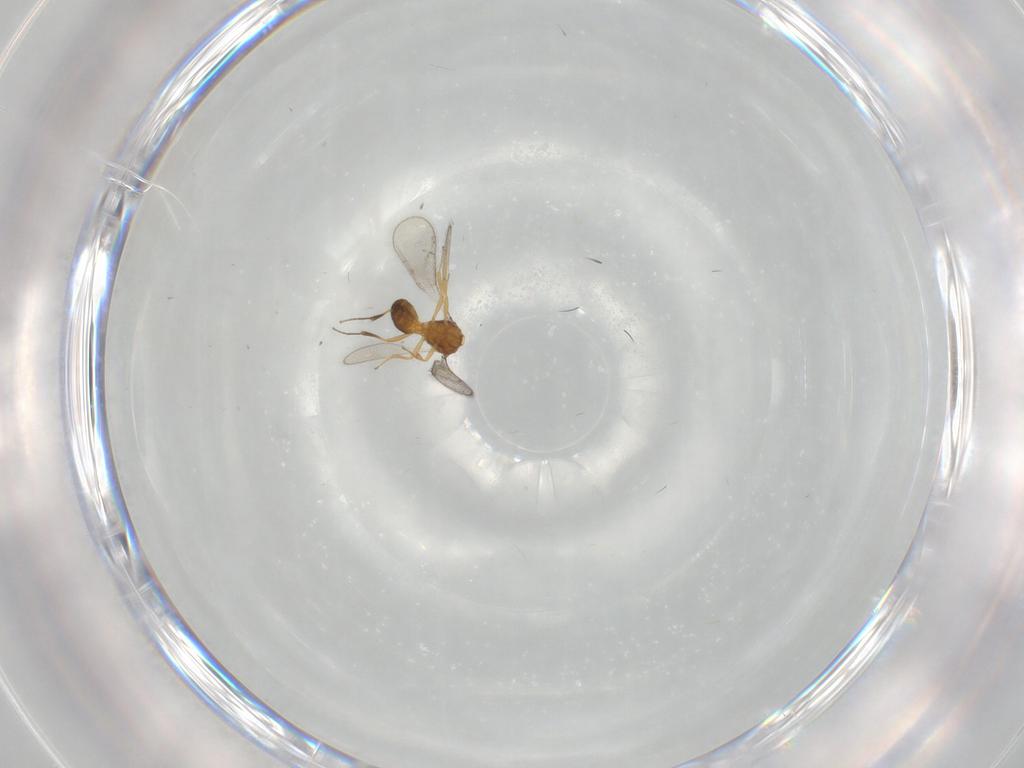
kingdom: Animalia
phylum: Arthropoda
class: Insecta
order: Hymenoptera
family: Scelionidae
